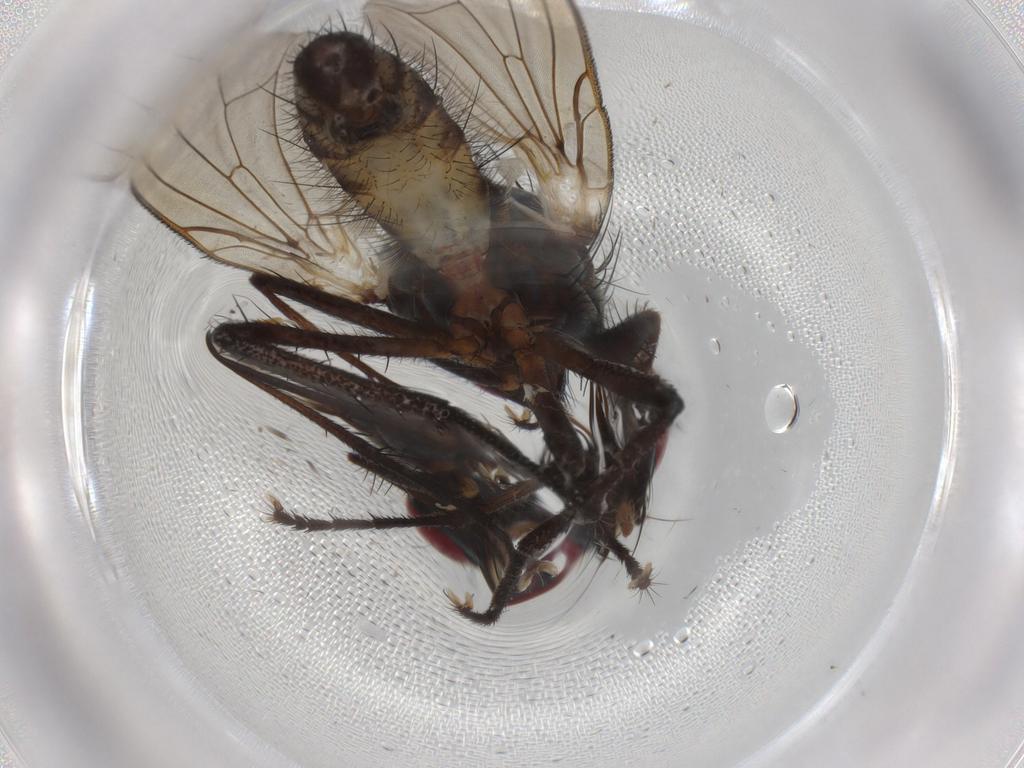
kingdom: Animalia
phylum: Arthropoda
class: Insecta
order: Diptera
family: Anthomyiidae
